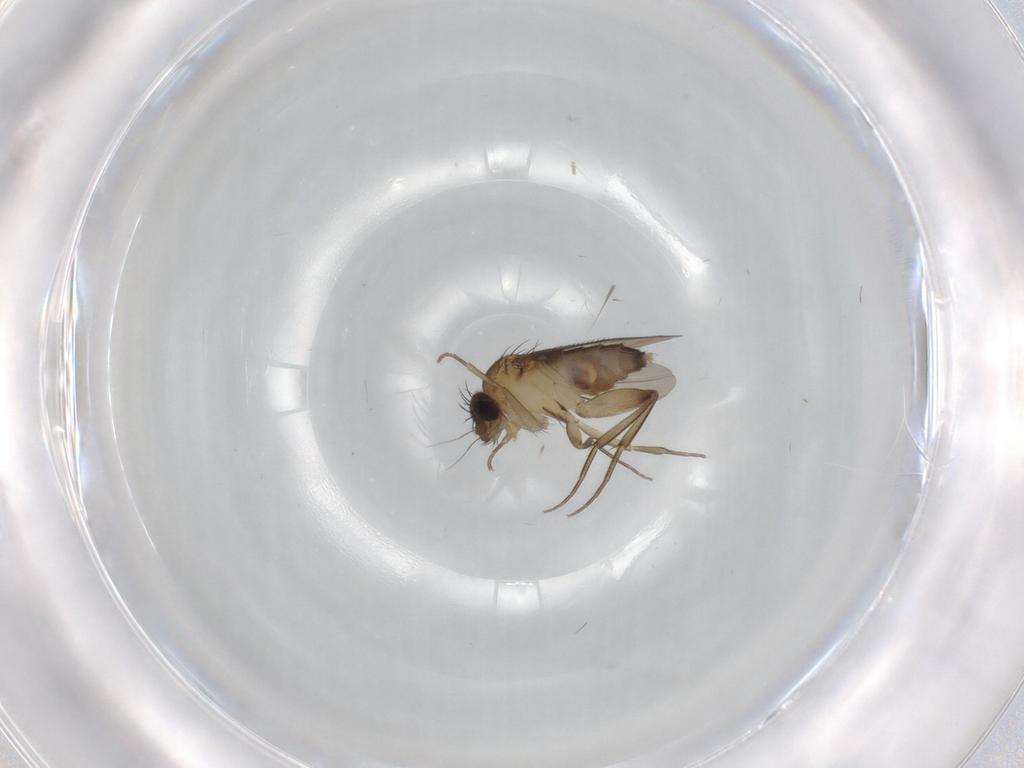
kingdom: Animalia
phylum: Arthropoda
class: Insecta
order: Diptera
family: Phoridae
